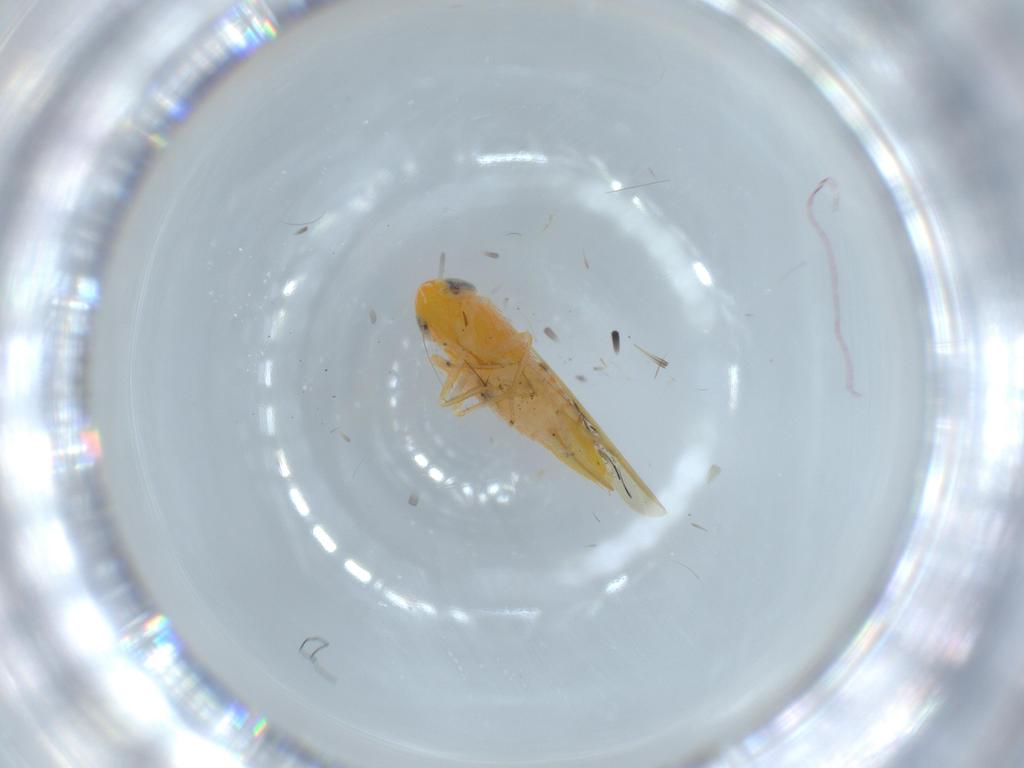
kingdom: Animalia
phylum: Arthropoda
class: Insecta
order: Hemiptera
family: Cicadellidae
